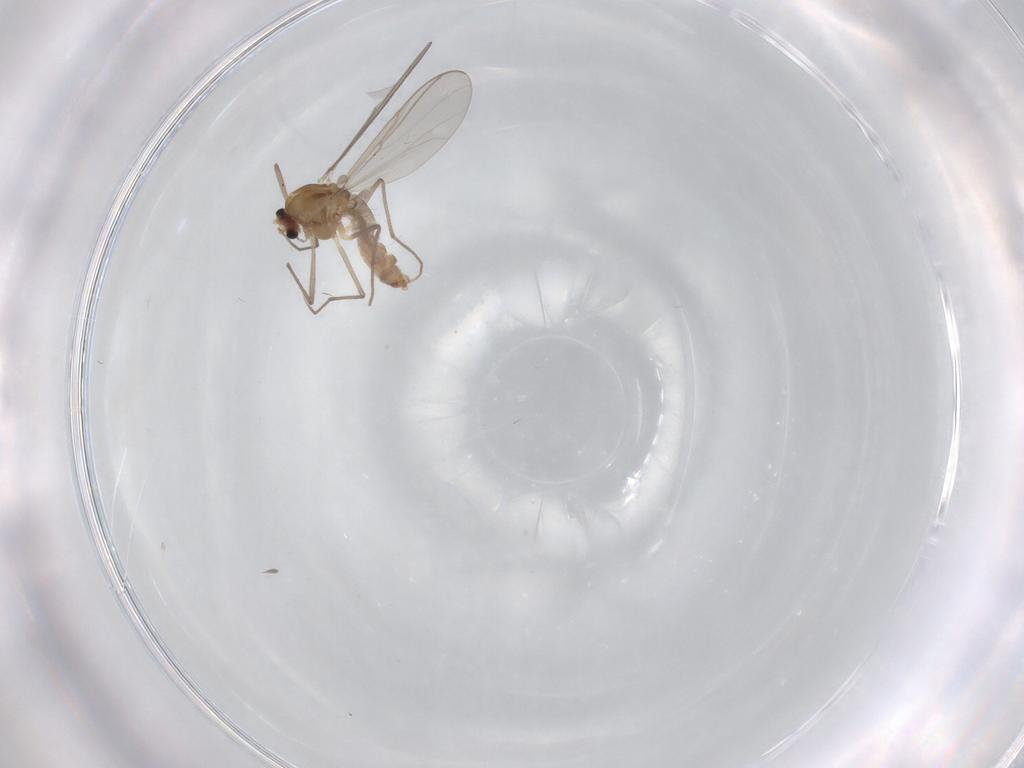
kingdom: Animalia
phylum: Arthropoda
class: Insecta
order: Diptera
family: Chironomidae
